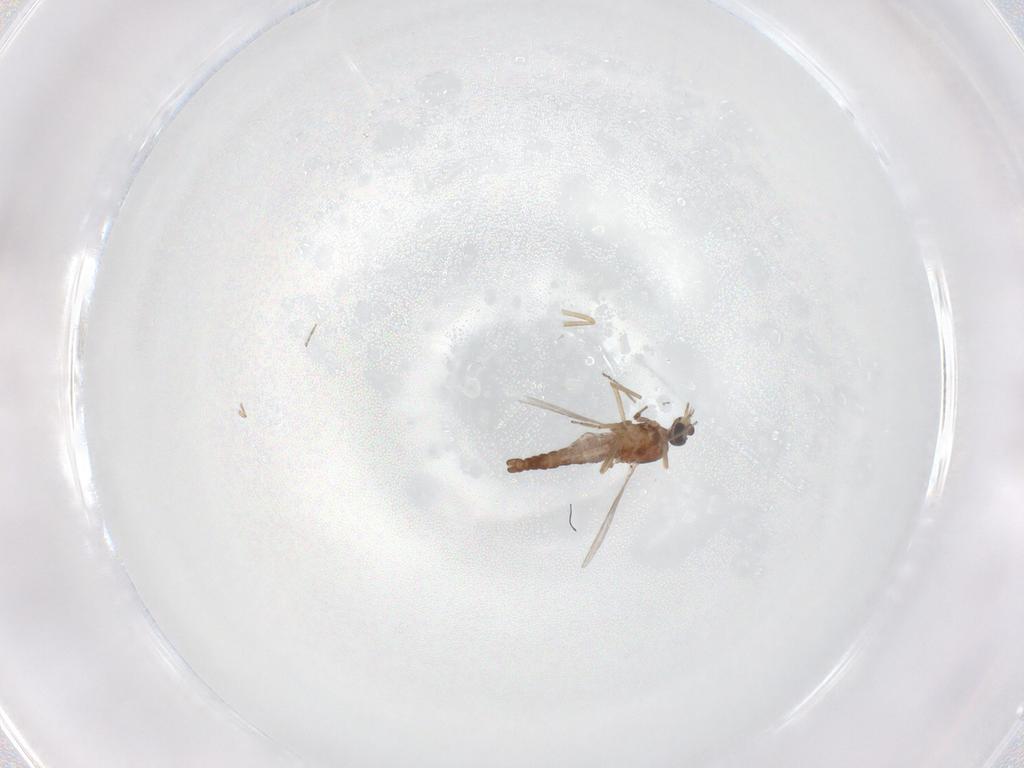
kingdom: Animalia
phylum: Arthropoda
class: Insecta
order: Diptera
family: Ceratopogonidae
